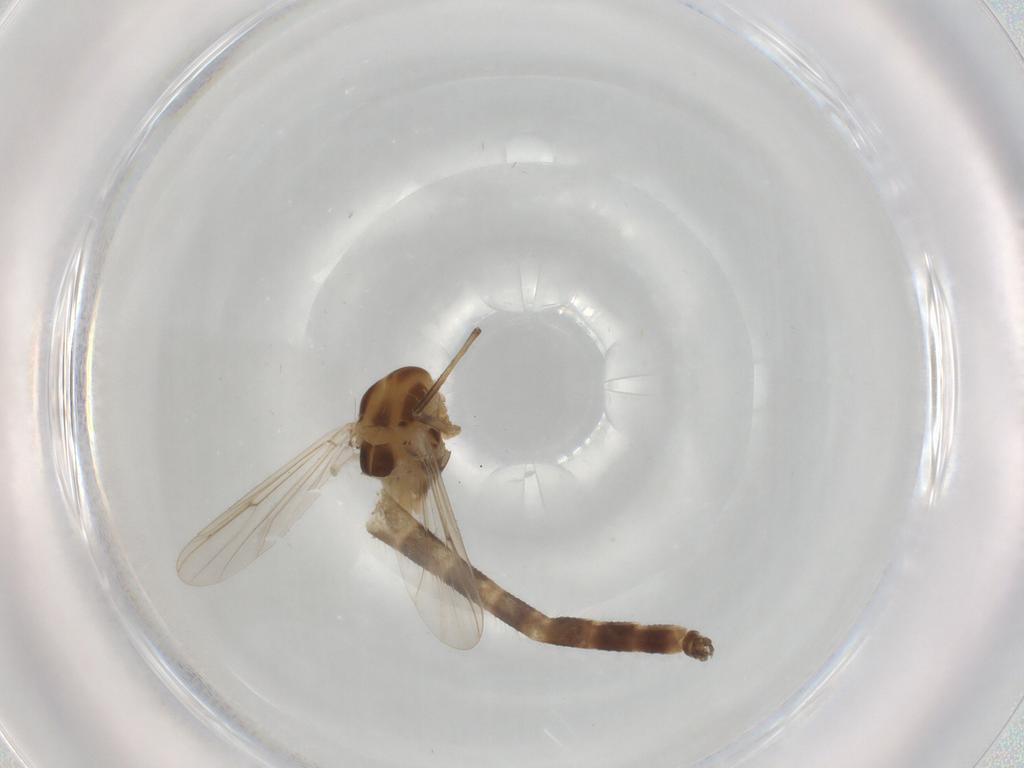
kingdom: Animalia
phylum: Arthropoda
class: Insecta
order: Diptera
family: Chironomidae
